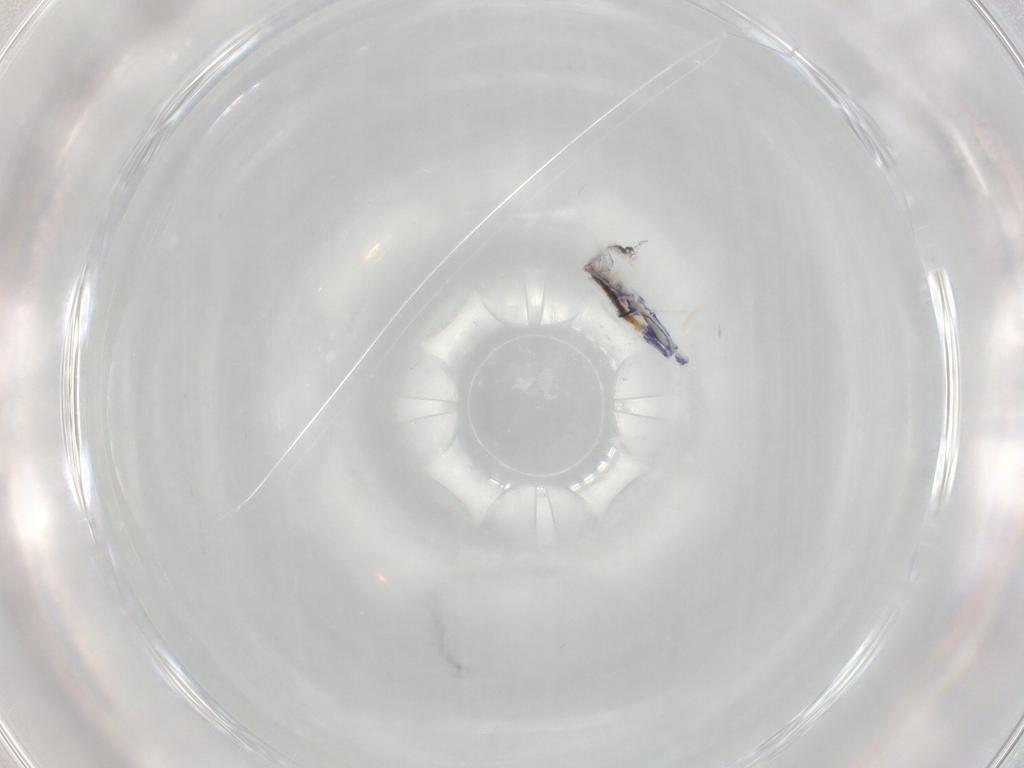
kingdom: Animalia
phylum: Arthropoda
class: Collembola
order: Entomobryomorpha
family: Entomobryidae
